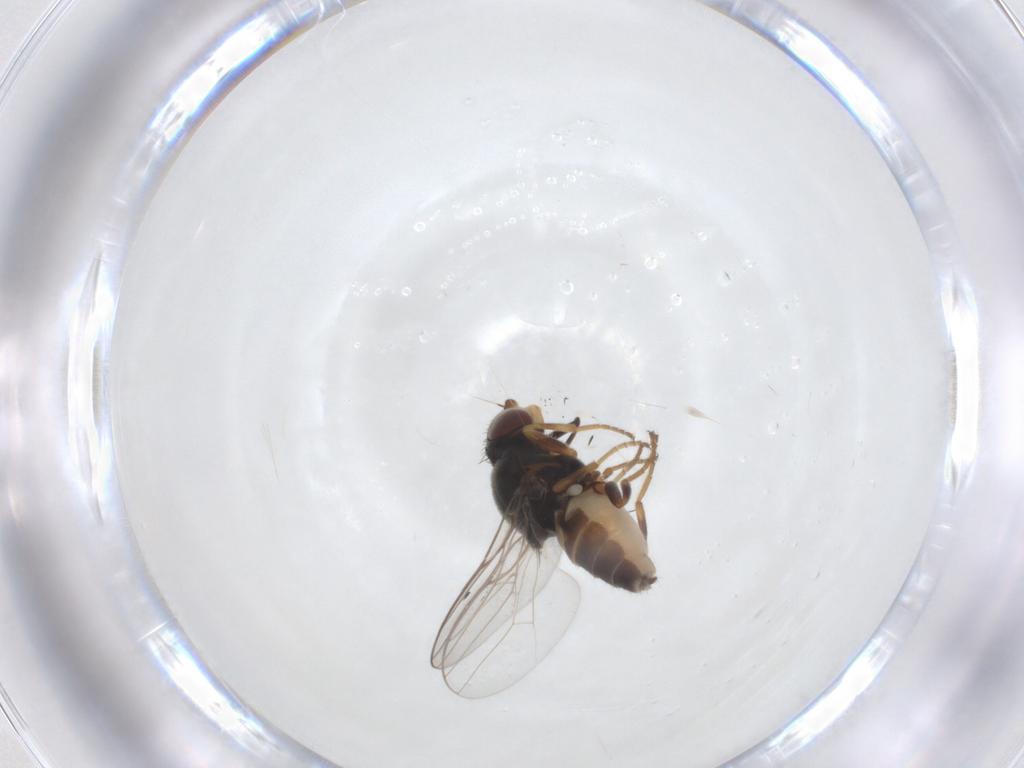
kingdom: Animalia
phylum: Arthropoda
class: Insecta
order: Diptera
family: Chloropidae
